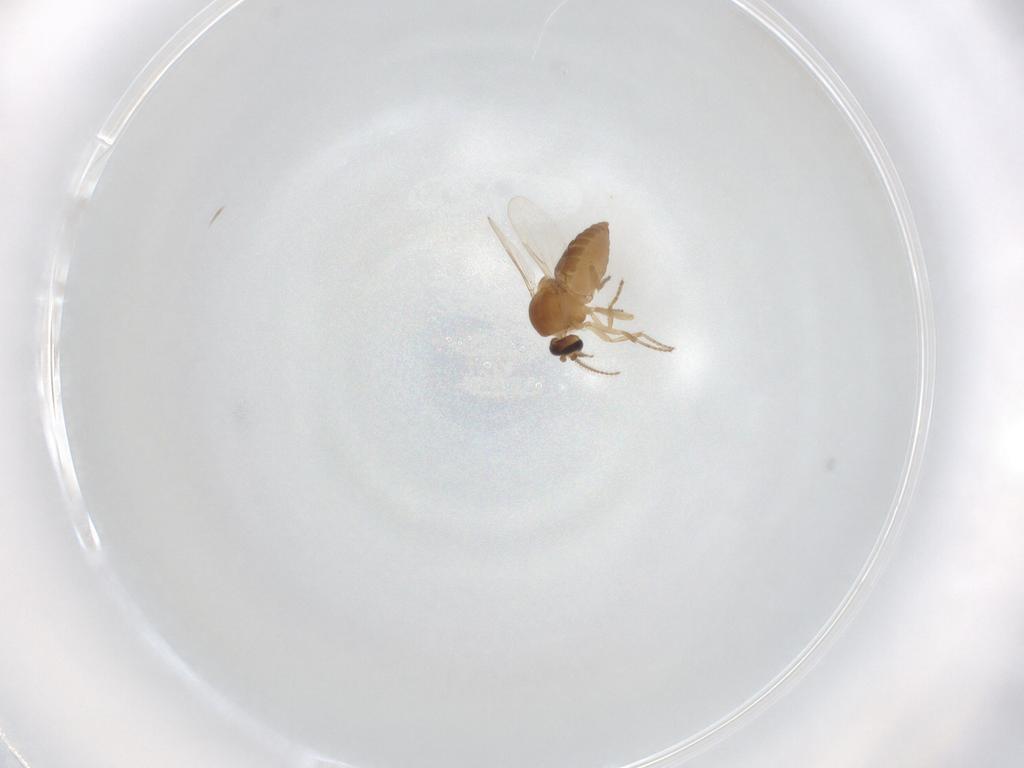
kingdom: Animalia
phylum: Arthropoda
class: Insecta
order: Diptera
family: Ceratopogonidae
